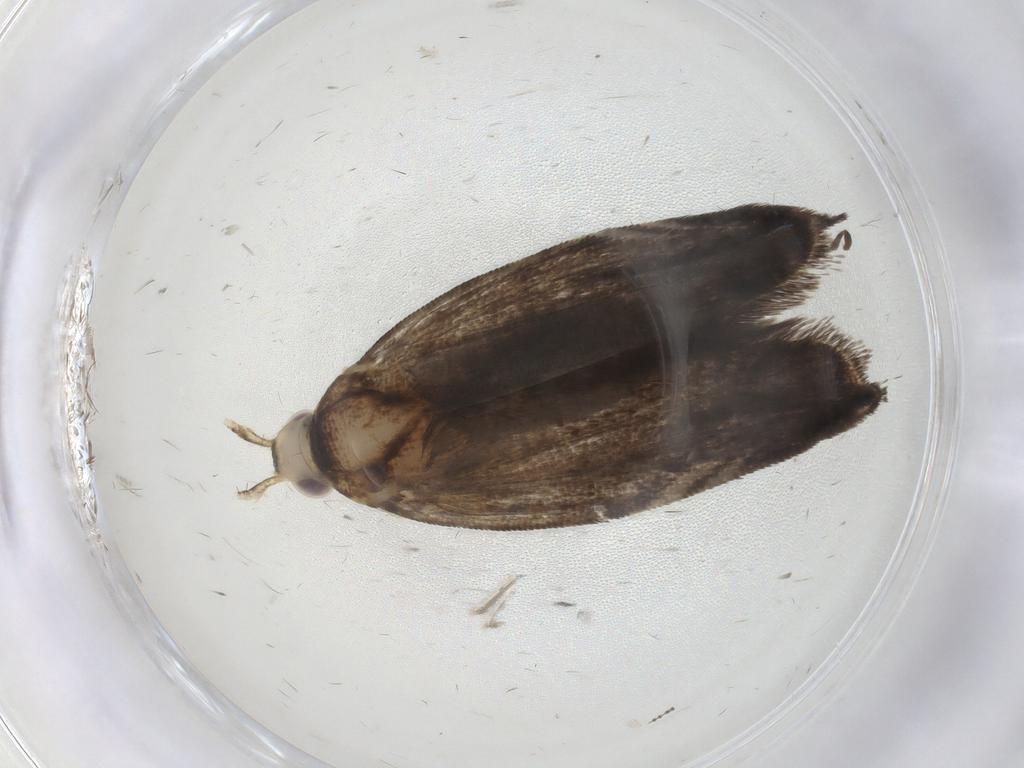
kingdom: Animalia
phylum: Arthropoda
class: Insecta
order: Lepidoptera
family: Gelechiidae
